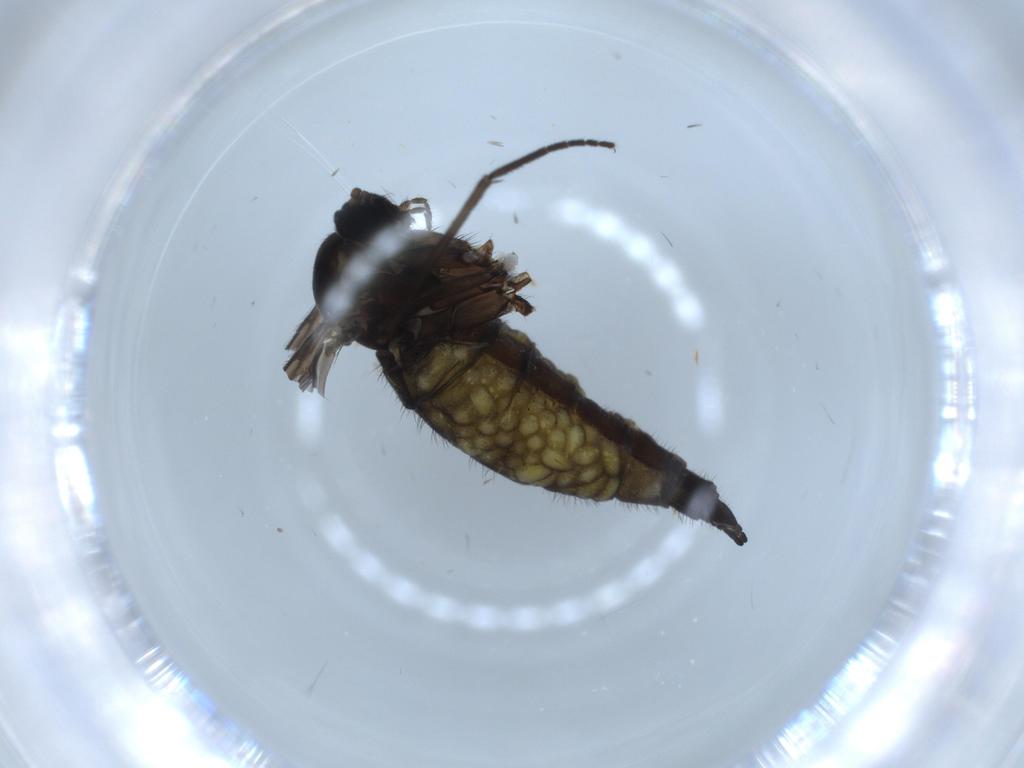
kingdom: Animalia
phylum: Arthropoda
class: Insecta
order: Diptera
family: Sciaridae
